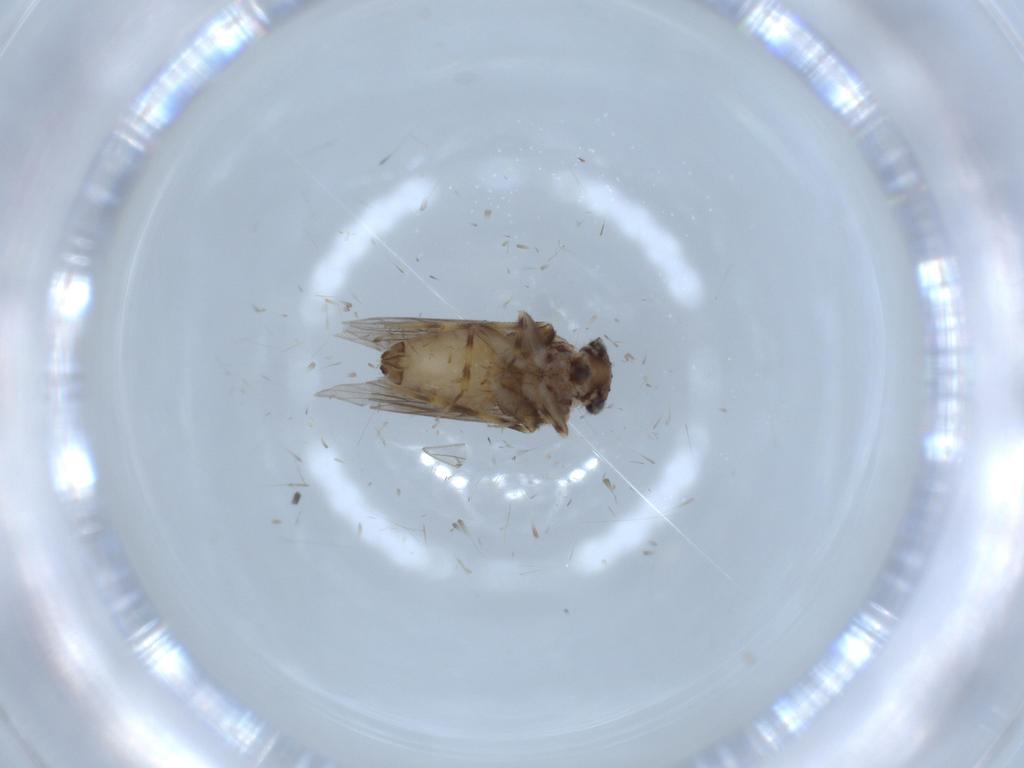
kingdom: Animalia
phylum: Arthropoda
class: Insecta
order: Psocodea
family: Lepidopsocidae
